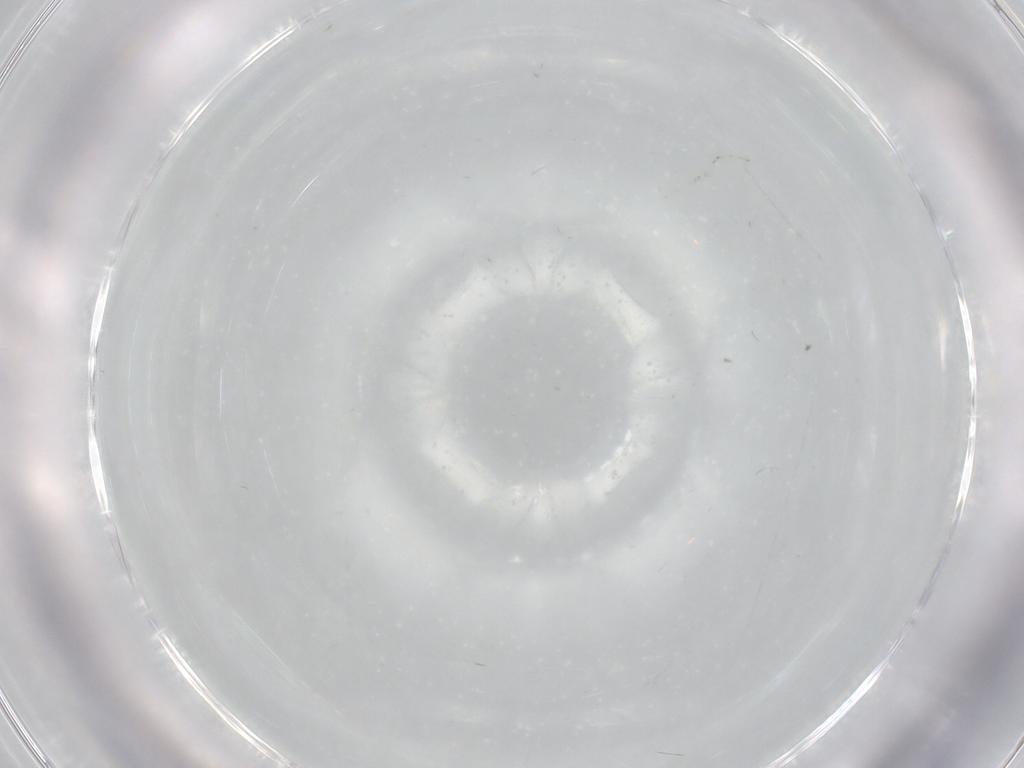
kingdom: Animalia
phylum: Arthropoda
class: Insecta
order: Diptera
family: Hybotidae
